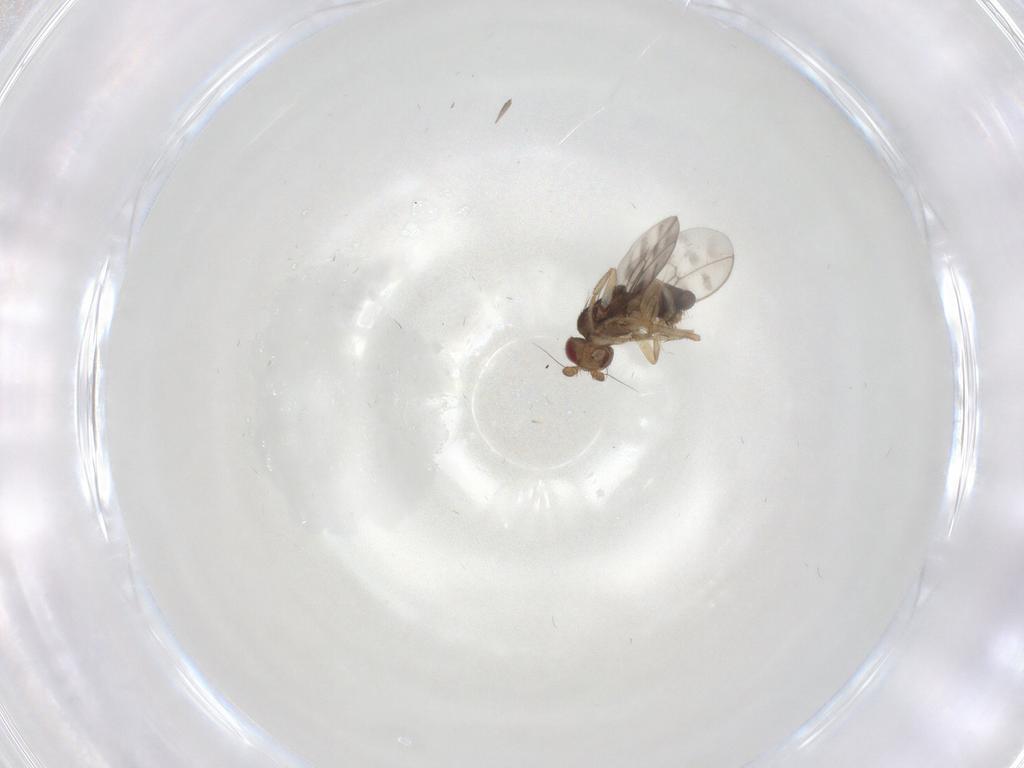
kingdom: Animalia
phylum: Arthropoda
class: Insecta
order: Diptera
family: Sphaeroceridae
